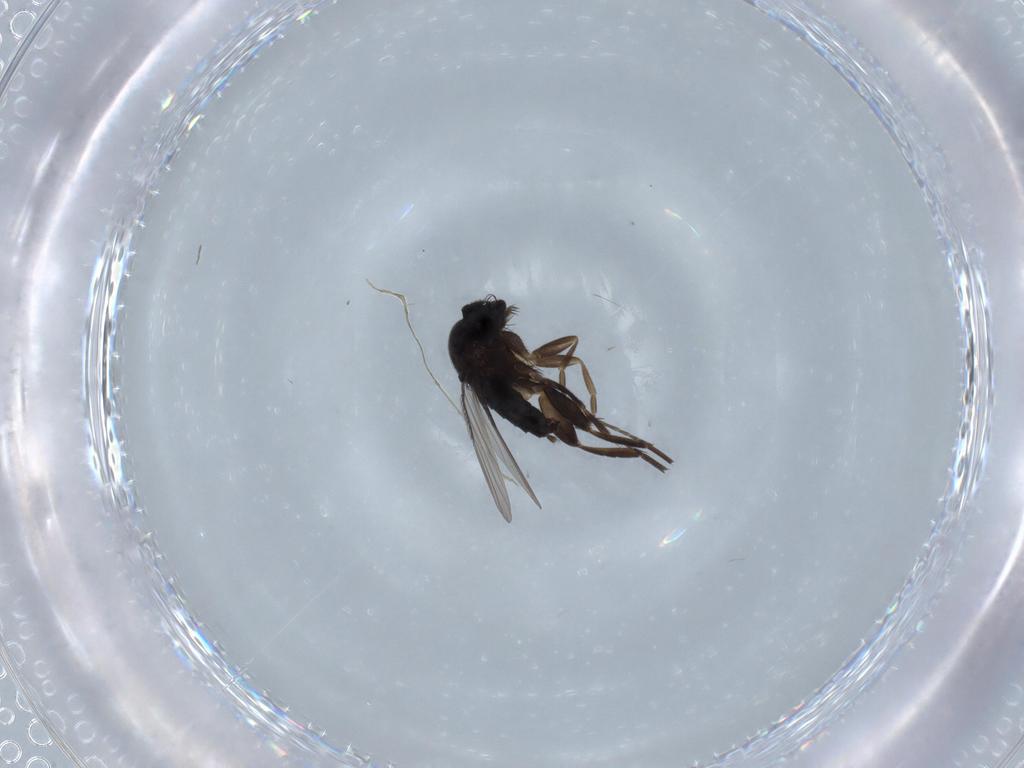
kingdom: Animalia
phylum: Arthropoda
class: Insecta
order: Diptera
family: Phoridae
